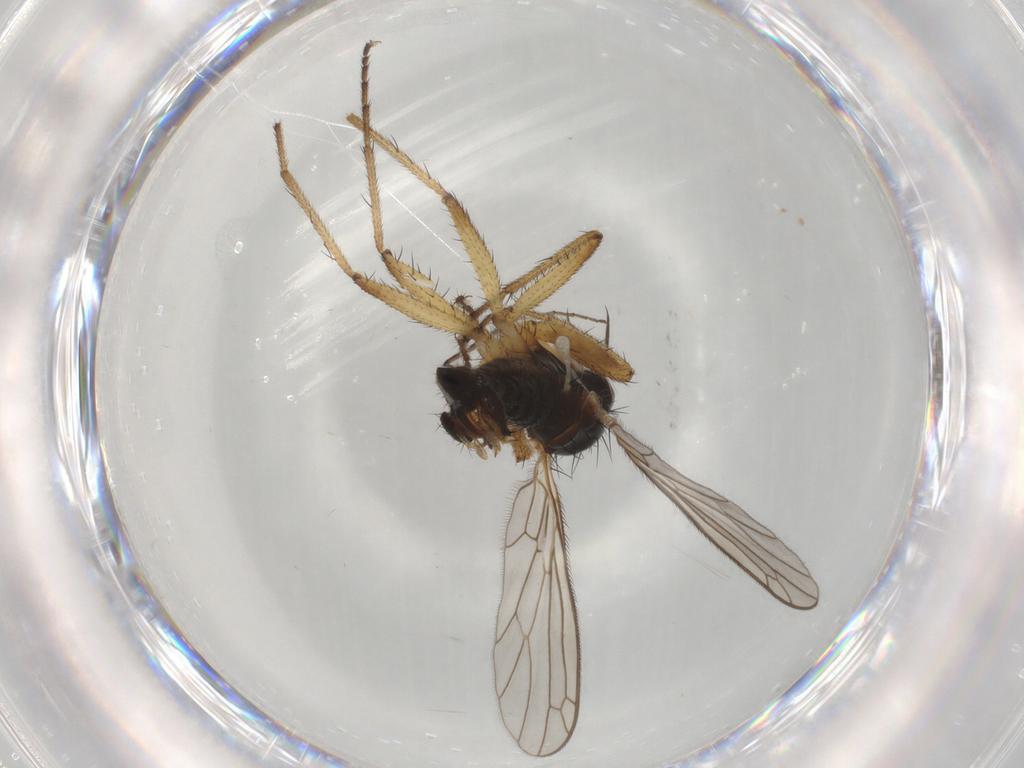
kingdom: Animalia
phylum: Arthropoda
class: Insecta
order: Diptera
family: Empididae
